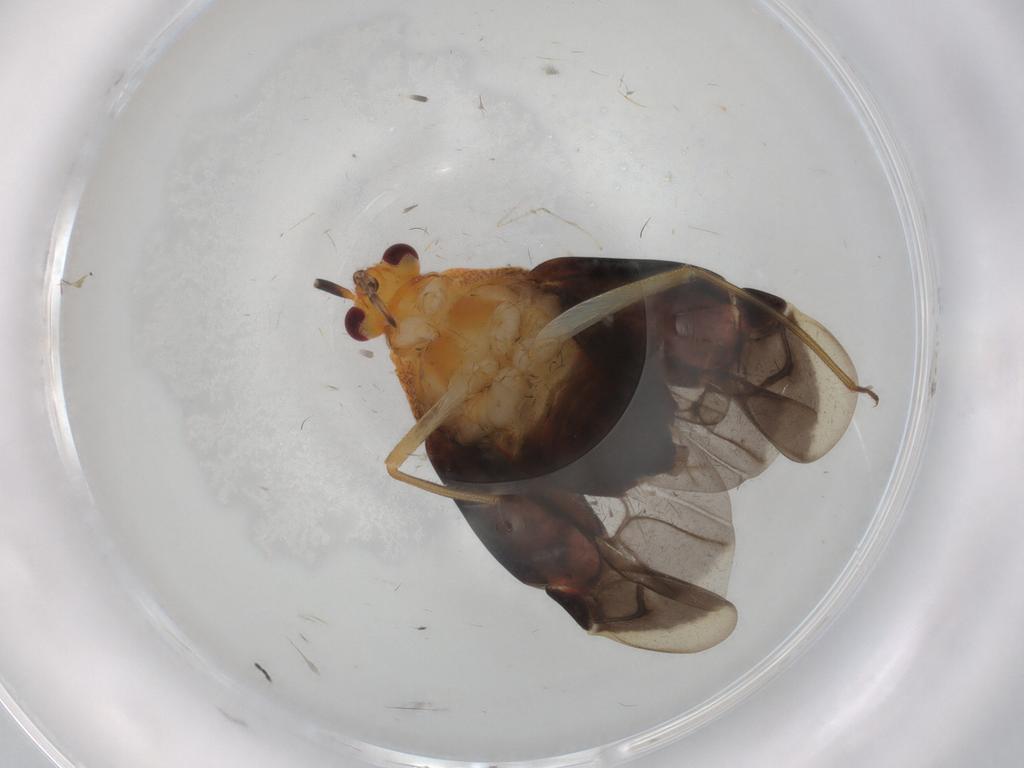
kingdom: Animalia
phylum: Arthropoda
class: Insecta
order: Hemiptera
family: Miridae
